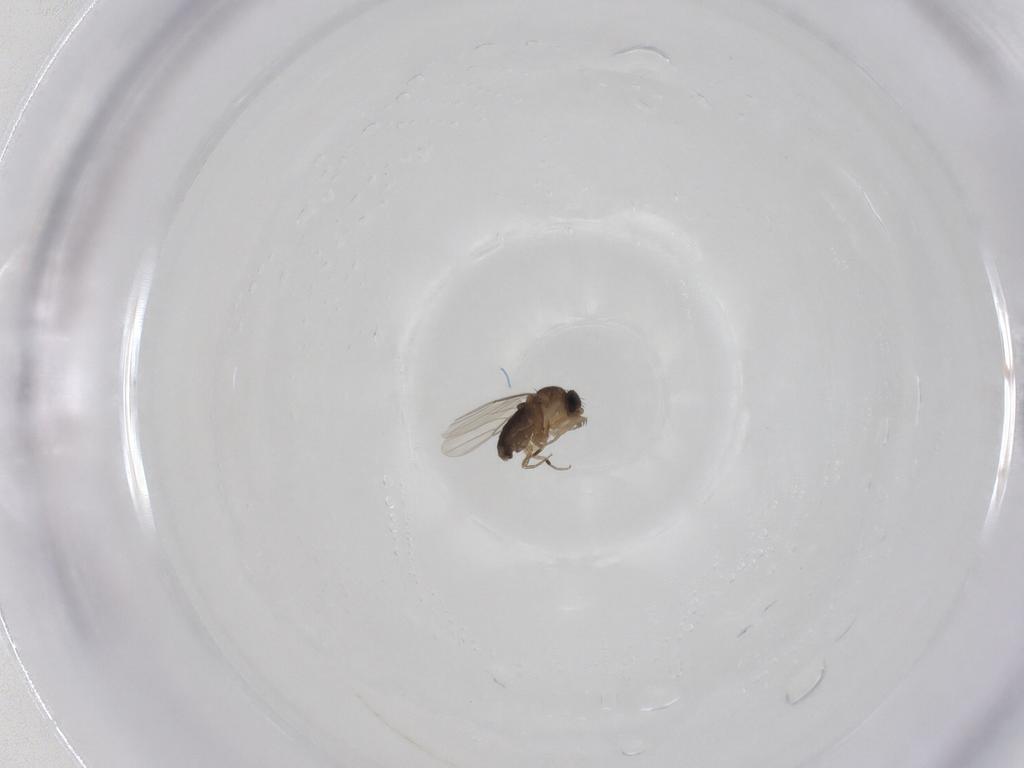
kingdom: Animalia
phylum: Arthropoda
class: Insecta
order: Diptera
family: Phoridae
